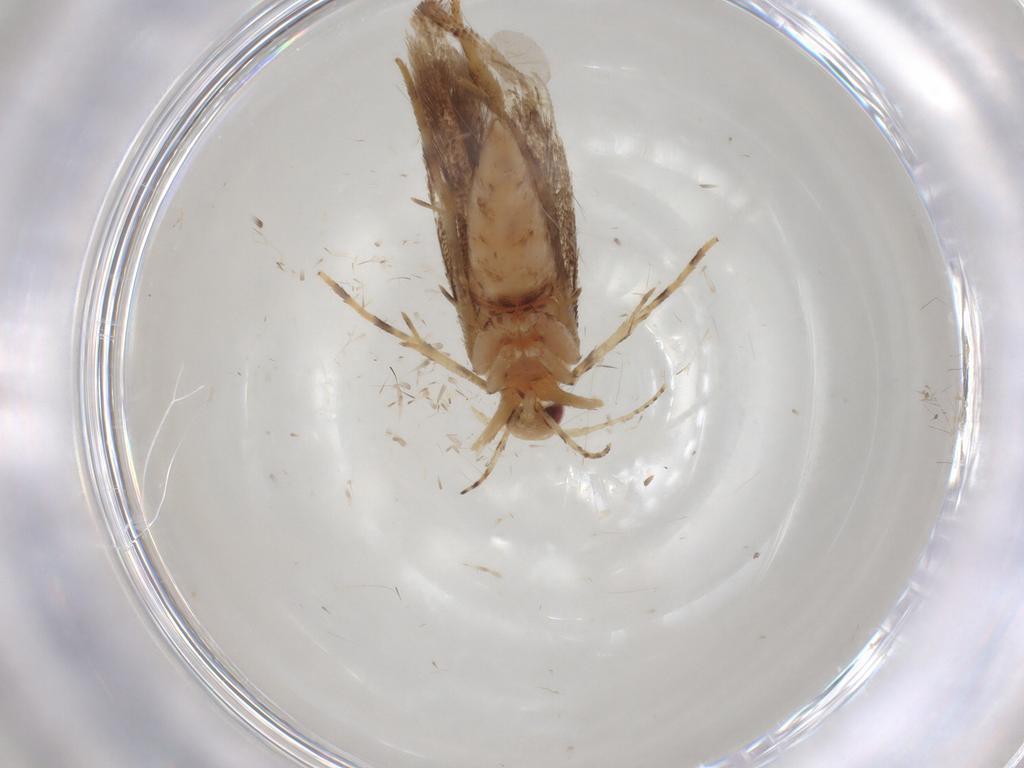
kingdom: Animalia
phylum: Arthropoda
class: Insecta
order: Lepidoptera
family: Cosmopterigidae
